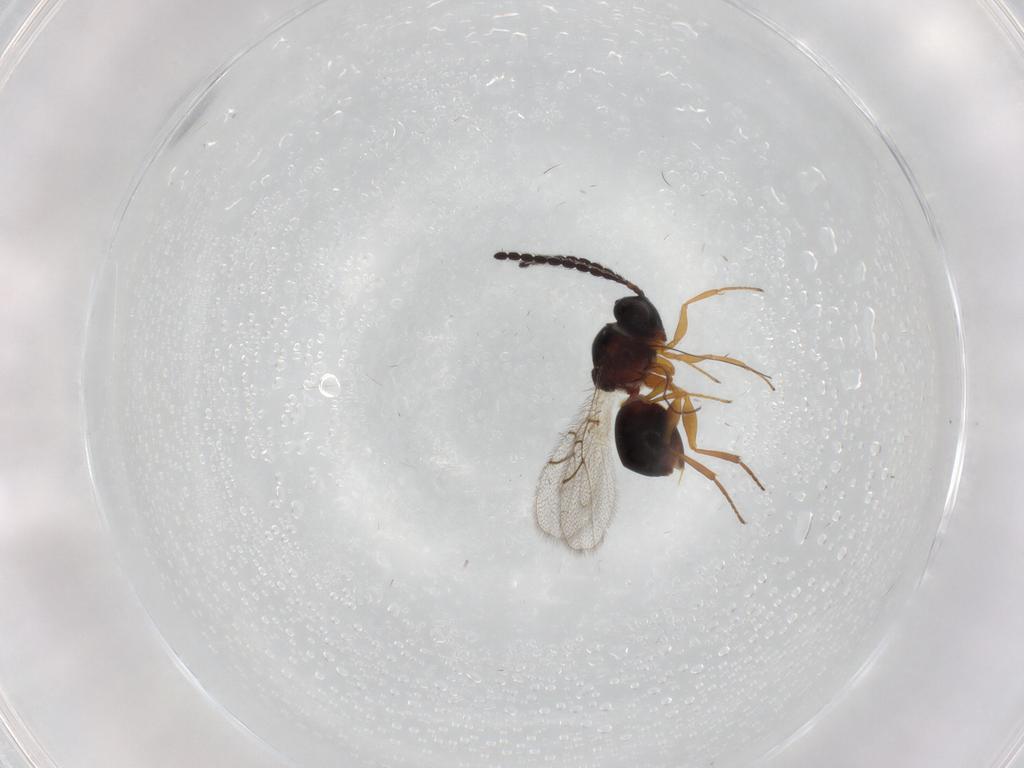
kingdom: Animalia
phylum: Arthropoda
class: Insecta
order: Hymenoptera
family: Figitidae
